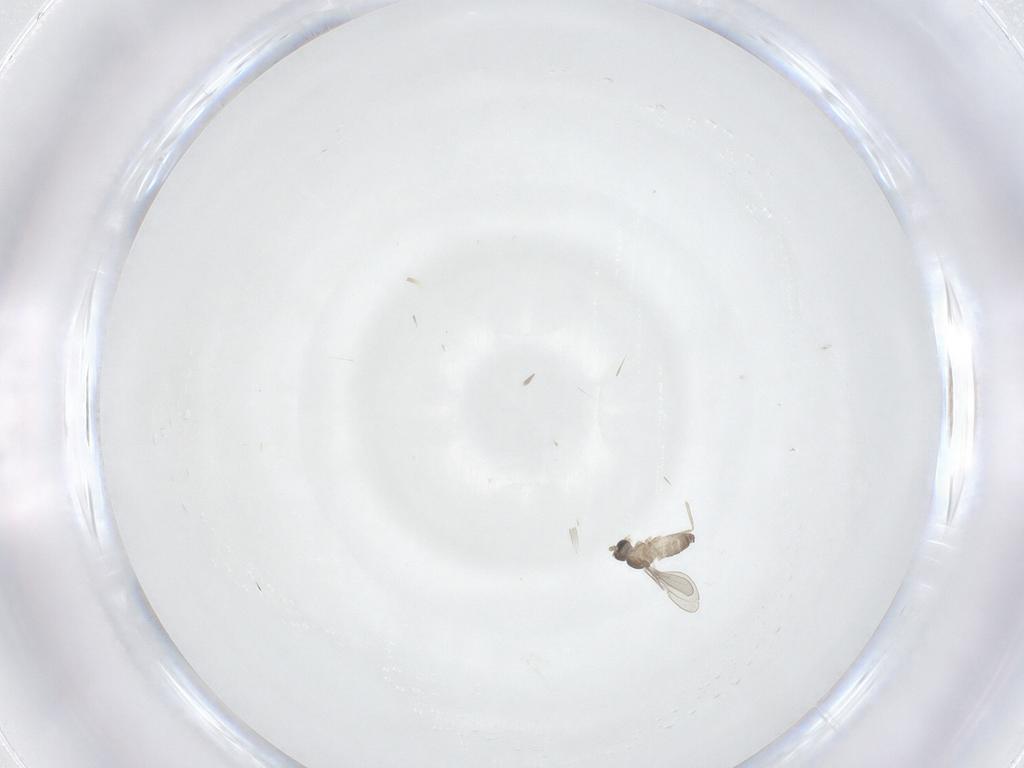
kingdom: Animalia
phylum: Arthropoda
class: Insecta
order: Diptera
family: Cecidomyiidae
